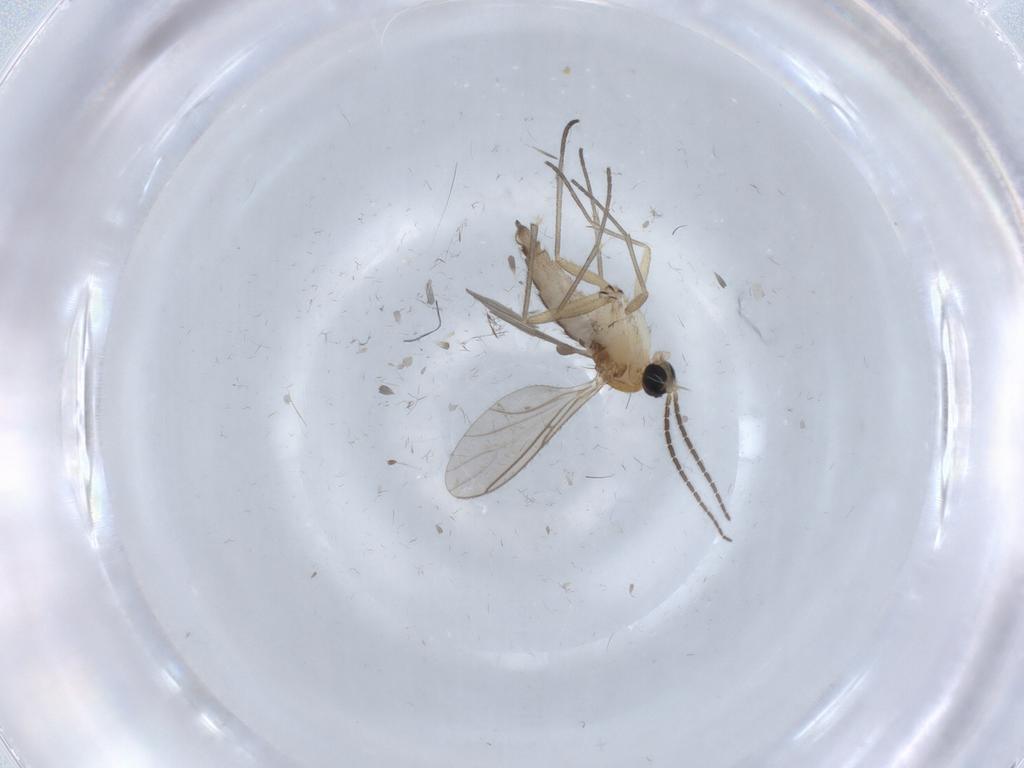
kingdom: Animalia
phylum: Arthropoda
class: Insecta
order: Diptera
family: Phoridae
